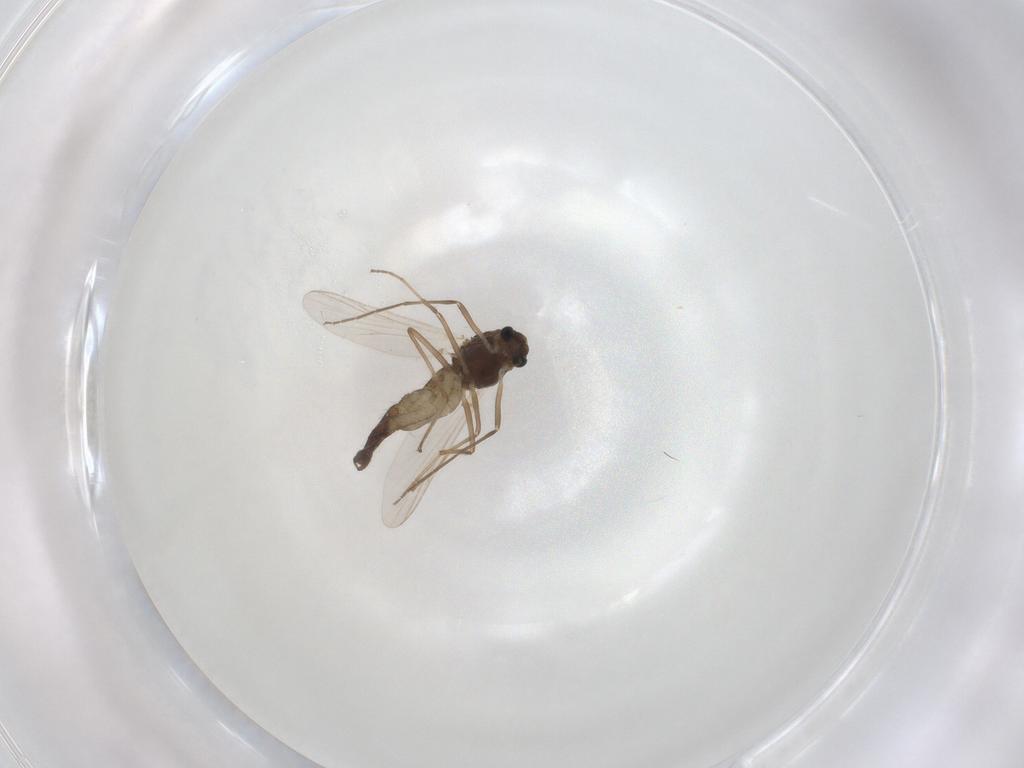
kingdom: Animalia
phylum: Arthropoda
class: Insecta
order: Diptera
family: Chironomidae
